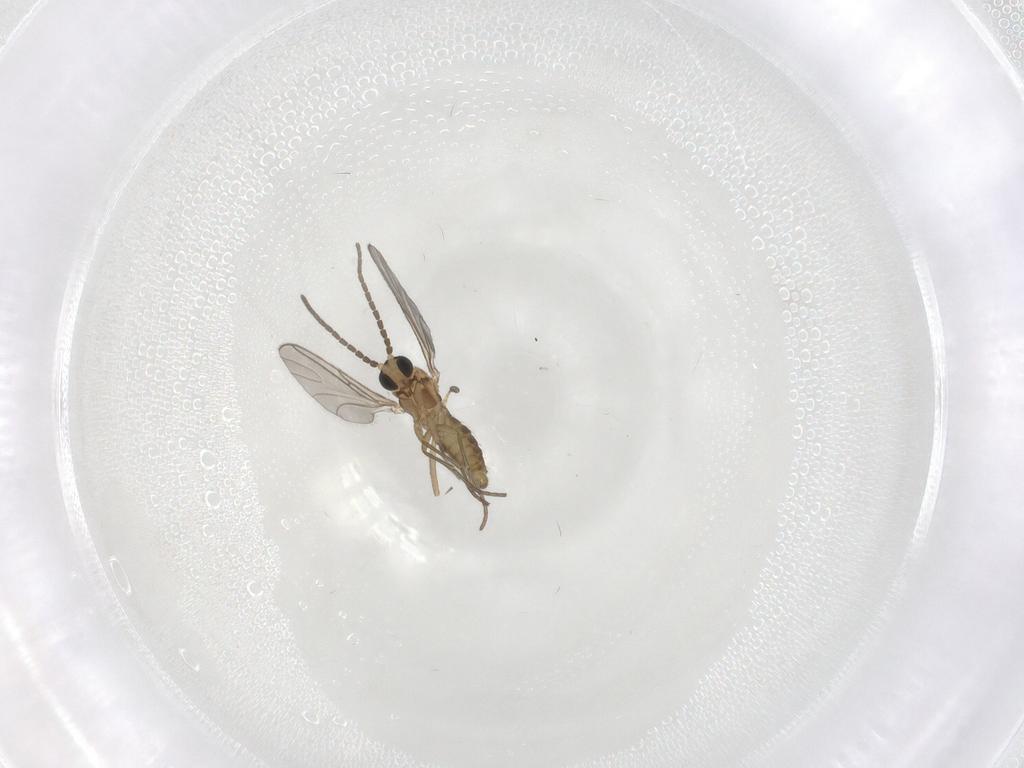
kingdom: Animalia
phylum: Arthropoda
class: Insecta
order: Diptera
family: Sciaridae
